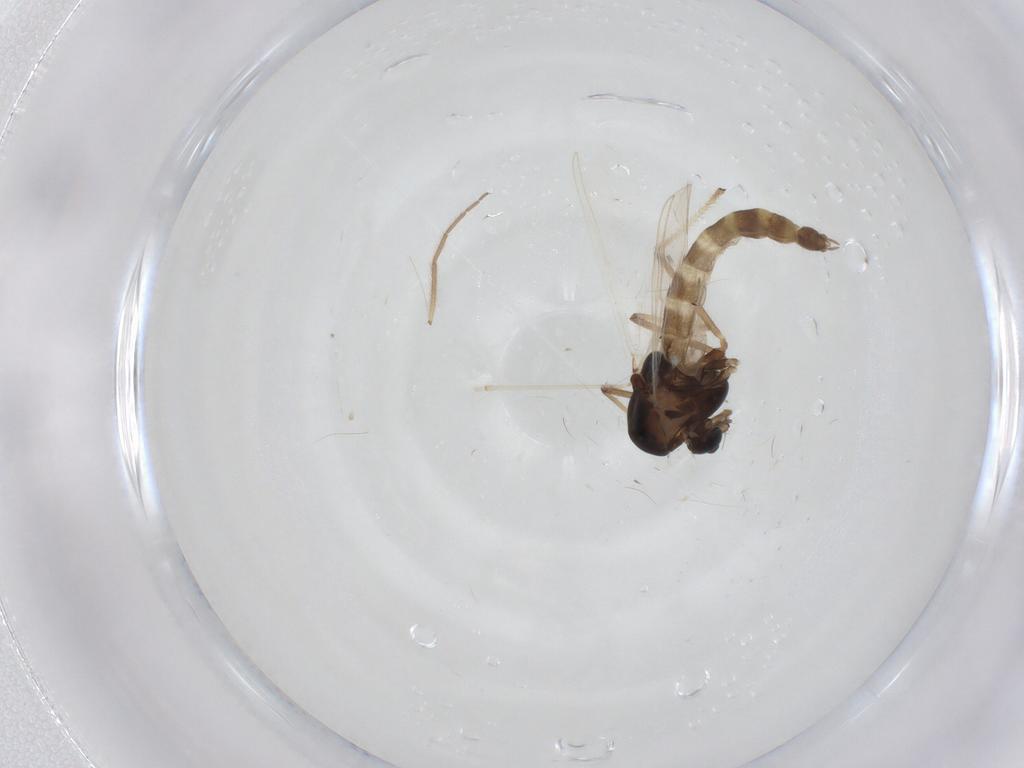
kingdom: Animalia
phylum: Arthropoda
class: Insecta
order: Diptera
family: Chironomidae
